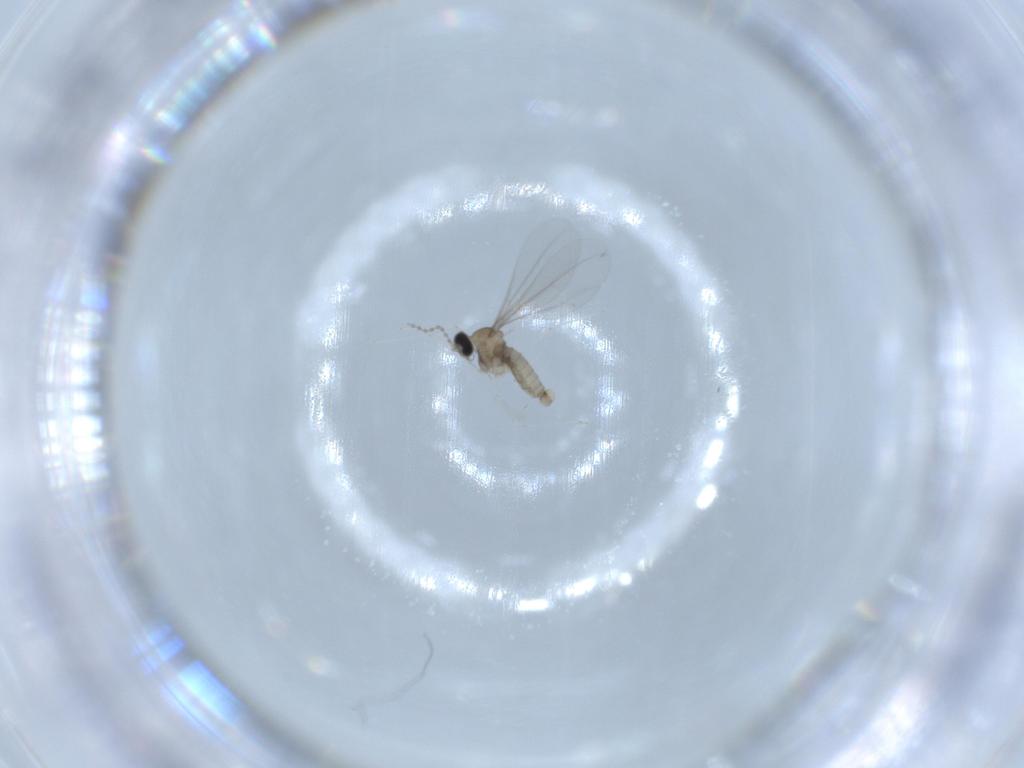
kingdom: Animalia
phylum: Arthropoda
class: Insecta
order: Diptera
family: Cecidomyiidae
